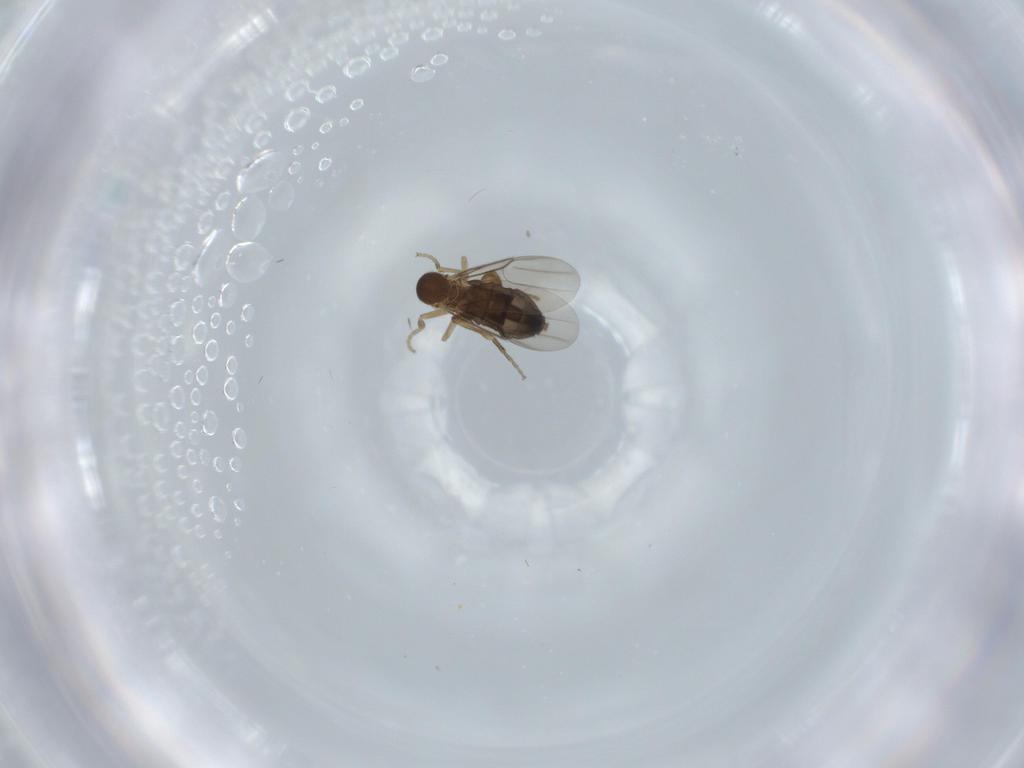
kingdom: Animalia
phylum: Arthropoda
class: Insecta
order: Diptera
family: Phoridae
